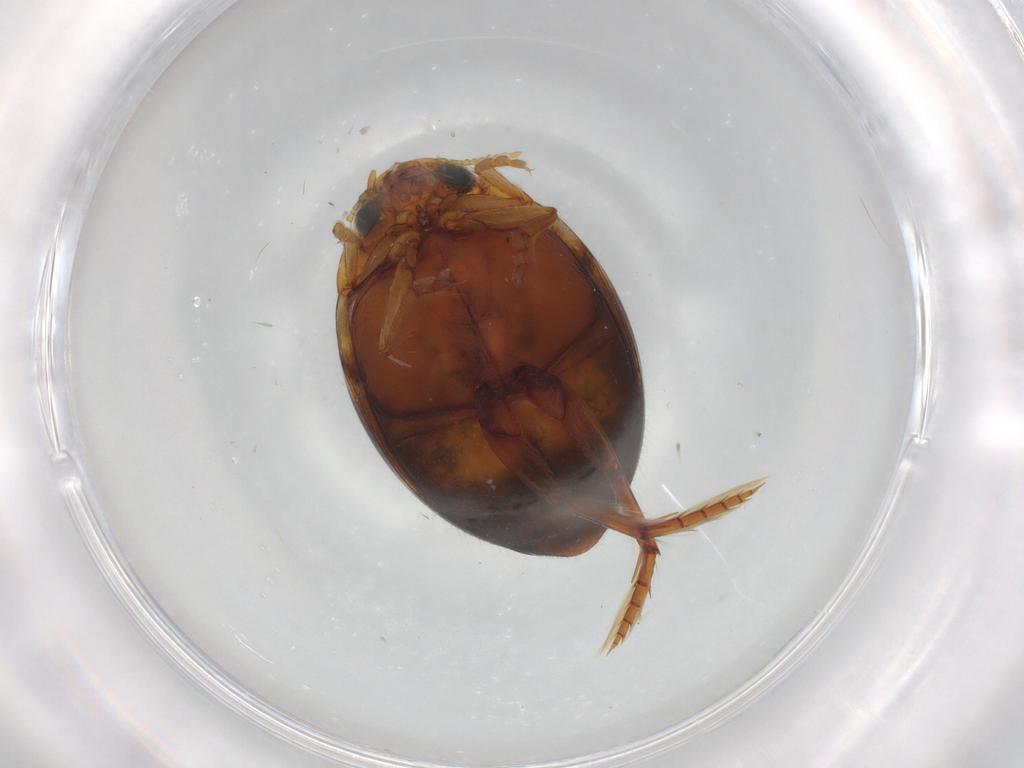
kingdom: Animalia
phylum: Arthropoda
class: Insecta
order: Coleoptera
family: Dytiscidae
